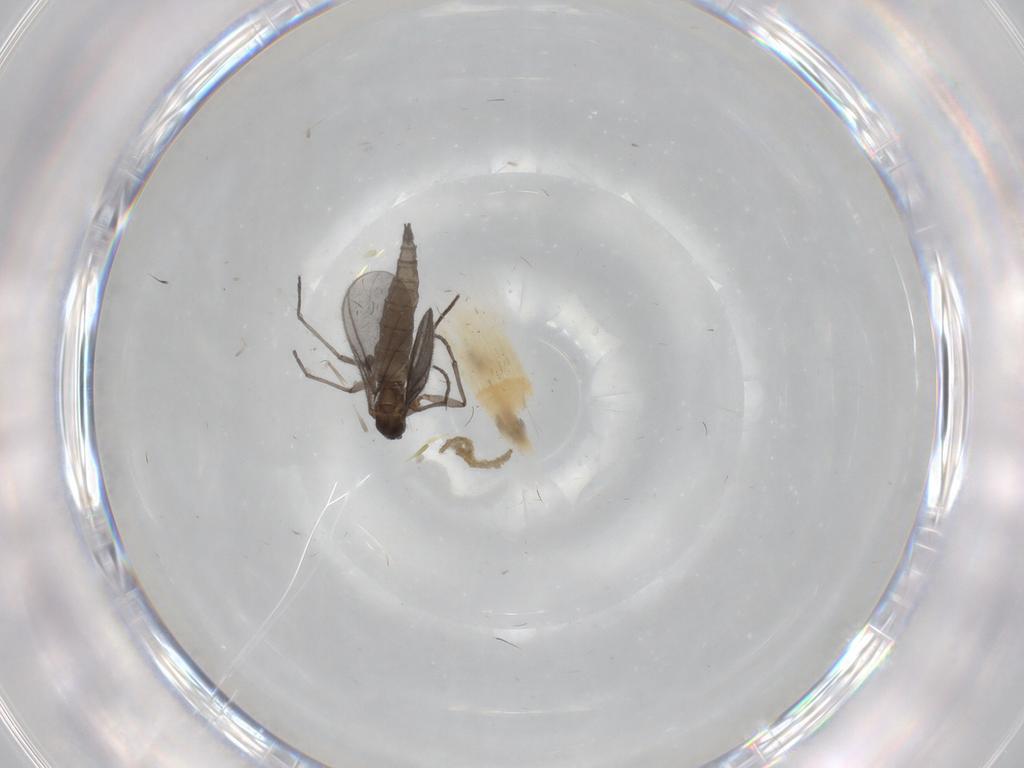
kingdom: Animalia
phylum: Arthropoda
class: Insecta
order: Diptera
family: Sciaridae
